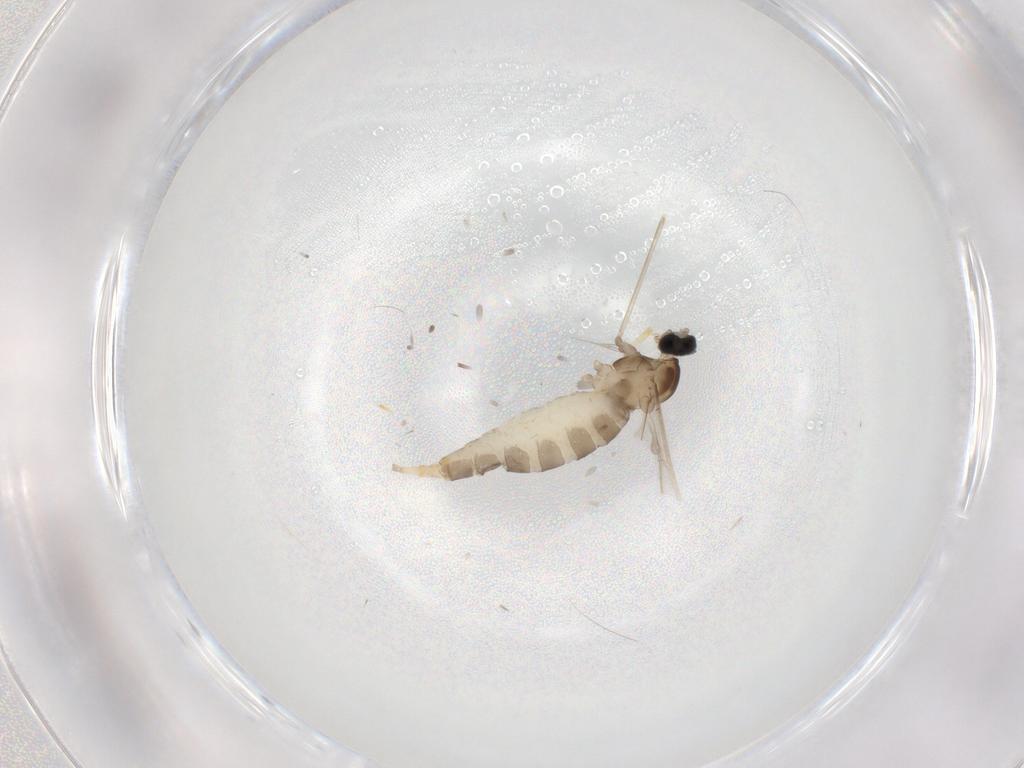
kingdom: Animalia
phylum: Arthropoda
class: Insecta
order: Diptera
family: Cecidomyiidae
